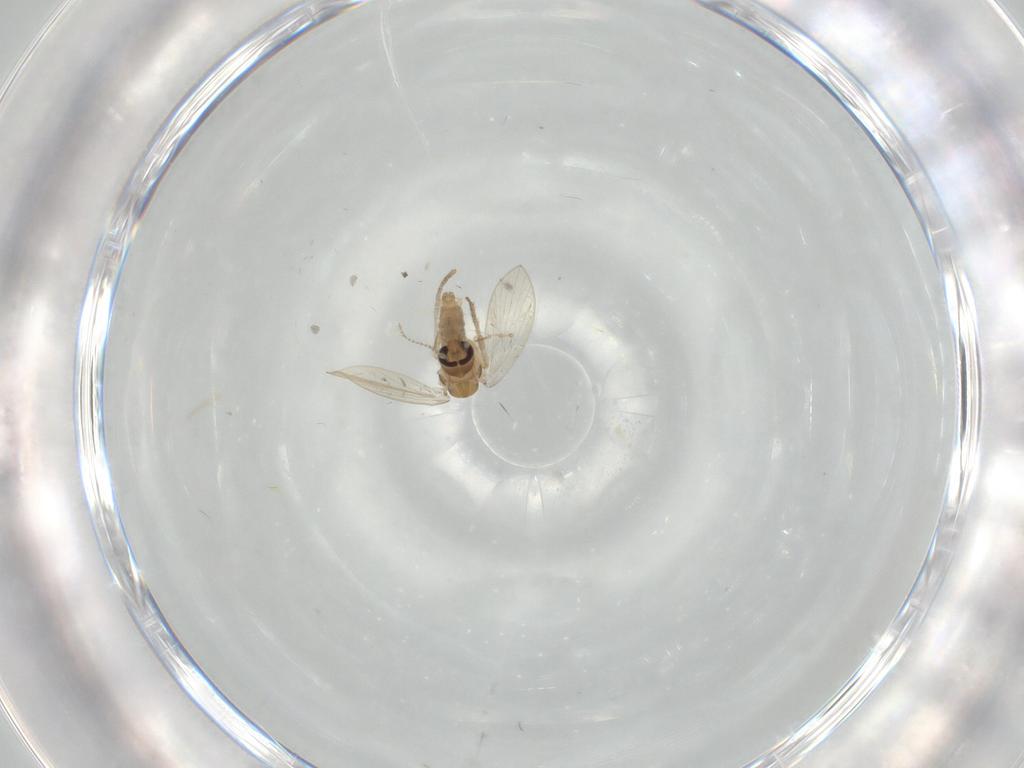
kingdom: Animalia
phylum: Arthropoda
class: Insecta
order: Diptera
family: Psychodidae
